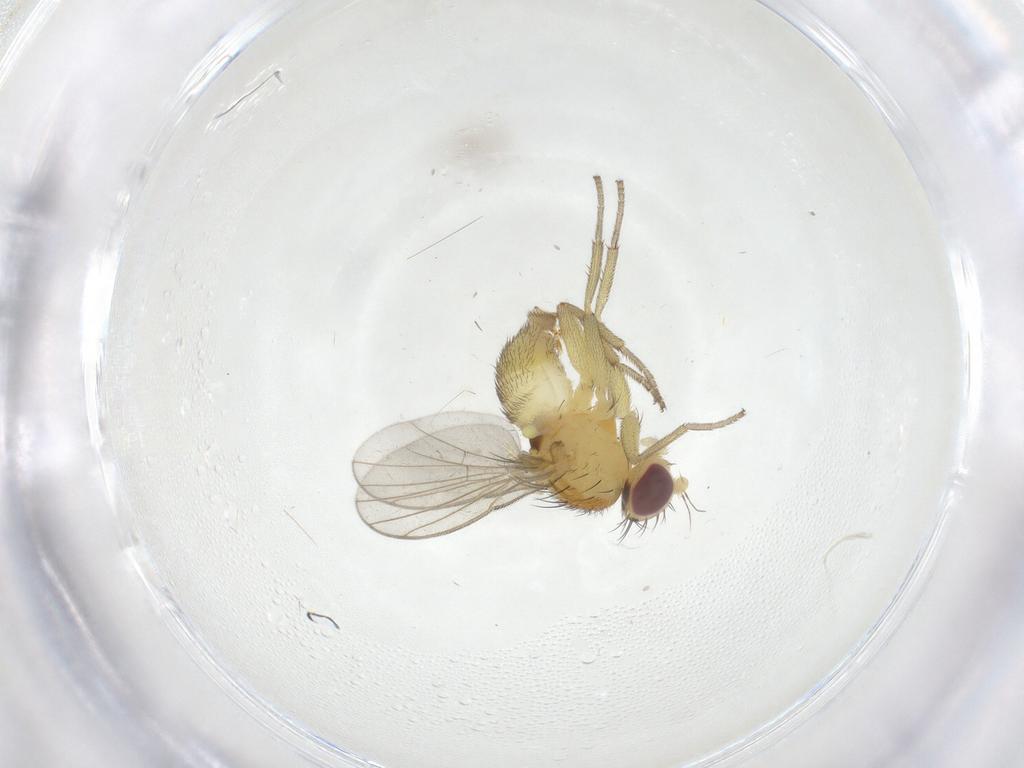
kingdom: Animalia
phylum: Arthropoda
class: Insecta
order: Diptera
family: Agromyzidae
